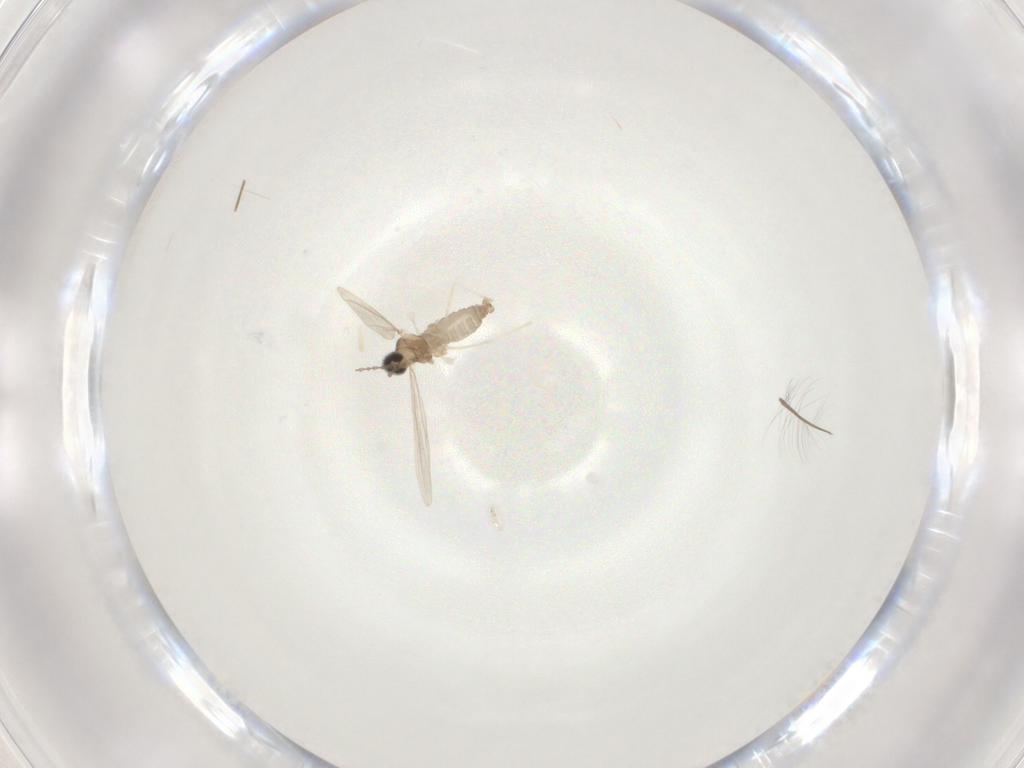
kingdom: Animalia
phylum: Arthropoda
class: Insecta
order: Diptera
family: Cecidomyiidae
